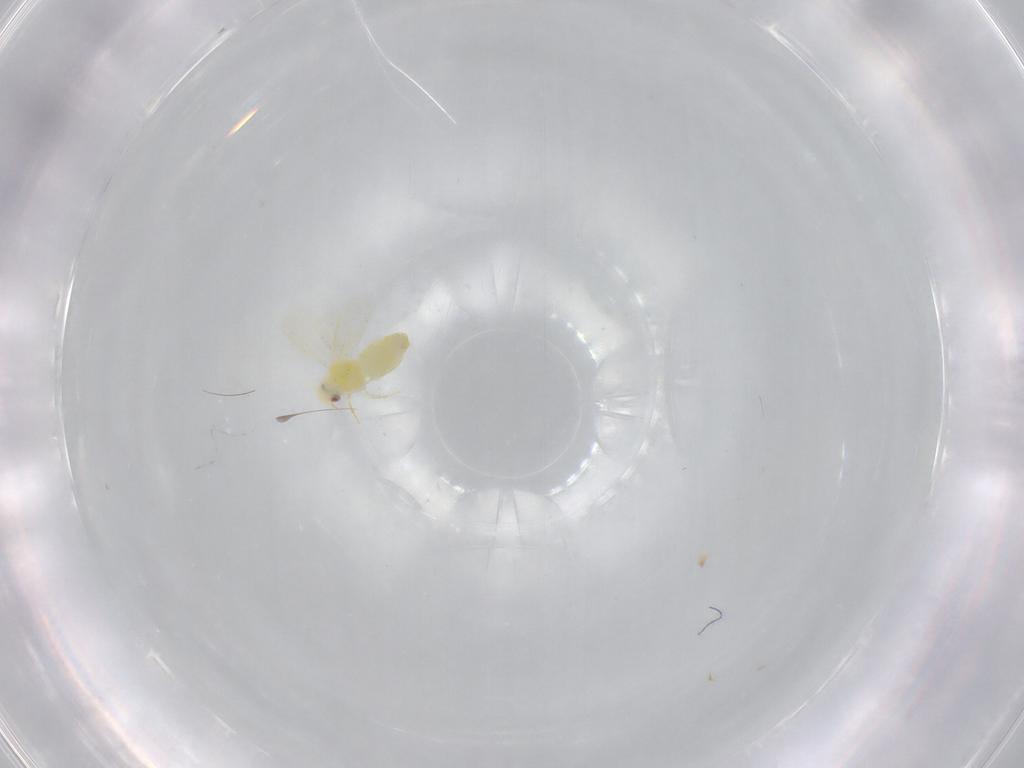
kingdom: Animalia
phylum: Arthropoda
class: Insecta
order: Hemiptera
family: Aleyrodidae
